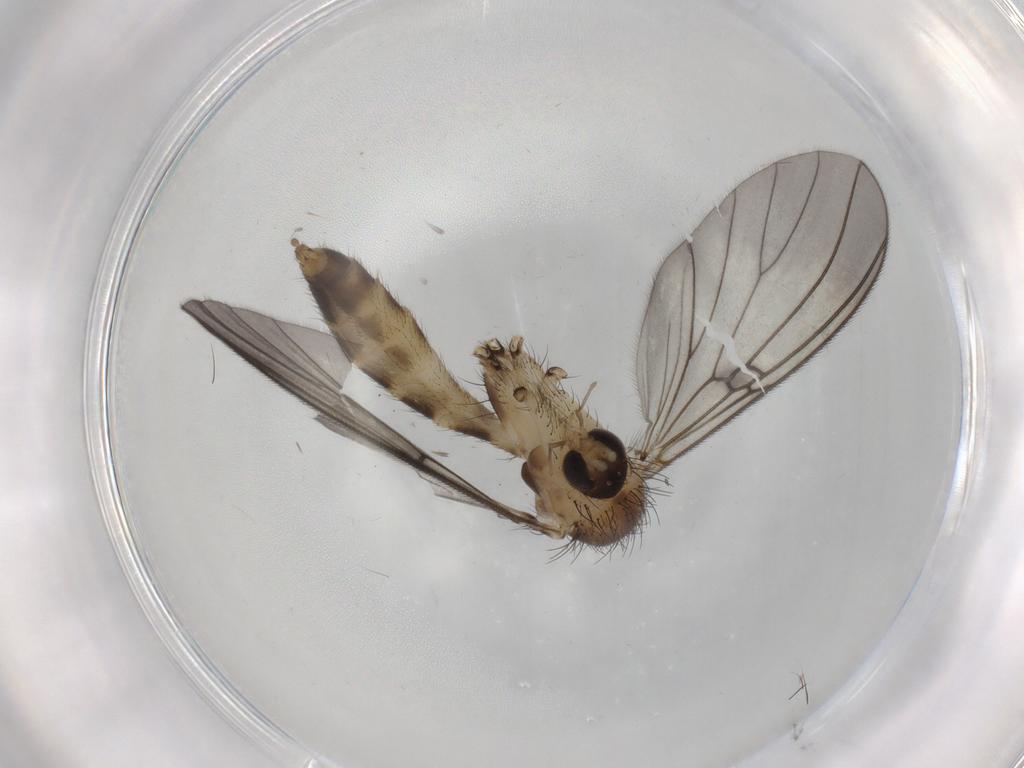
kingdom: Animalia
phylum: Arthropoda
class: Insecta
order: Diptera
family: Mycetophilidae
